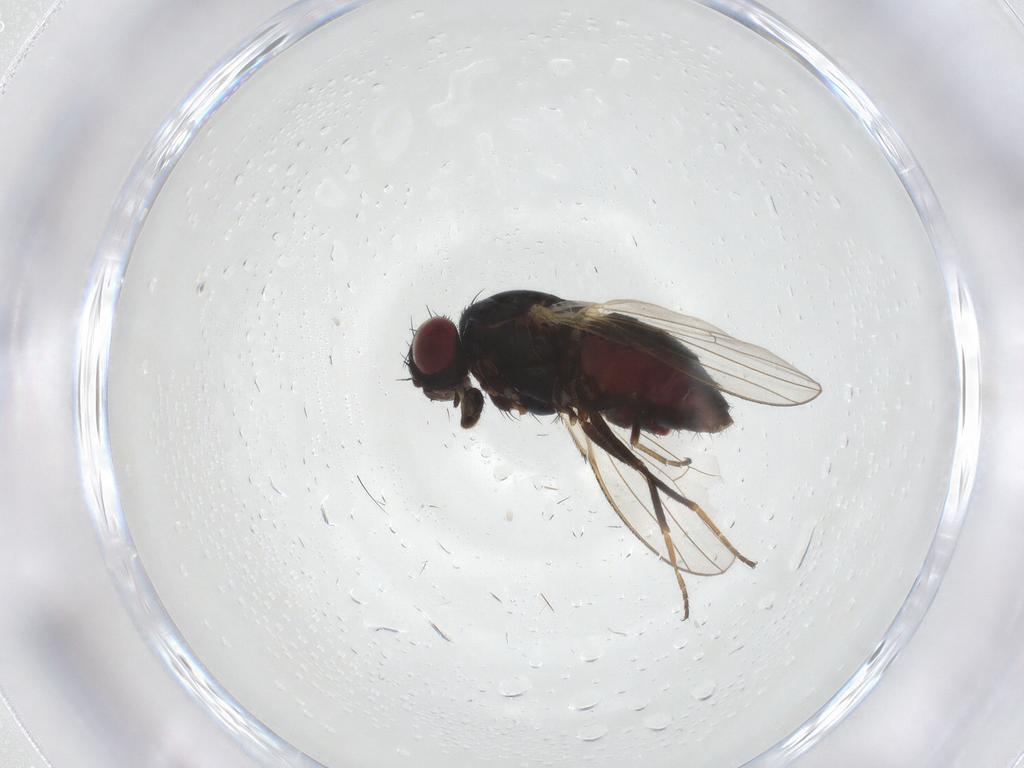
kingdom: Animalia
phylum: Arthropoda
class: Insecta
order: Diptera
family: Carnidae
